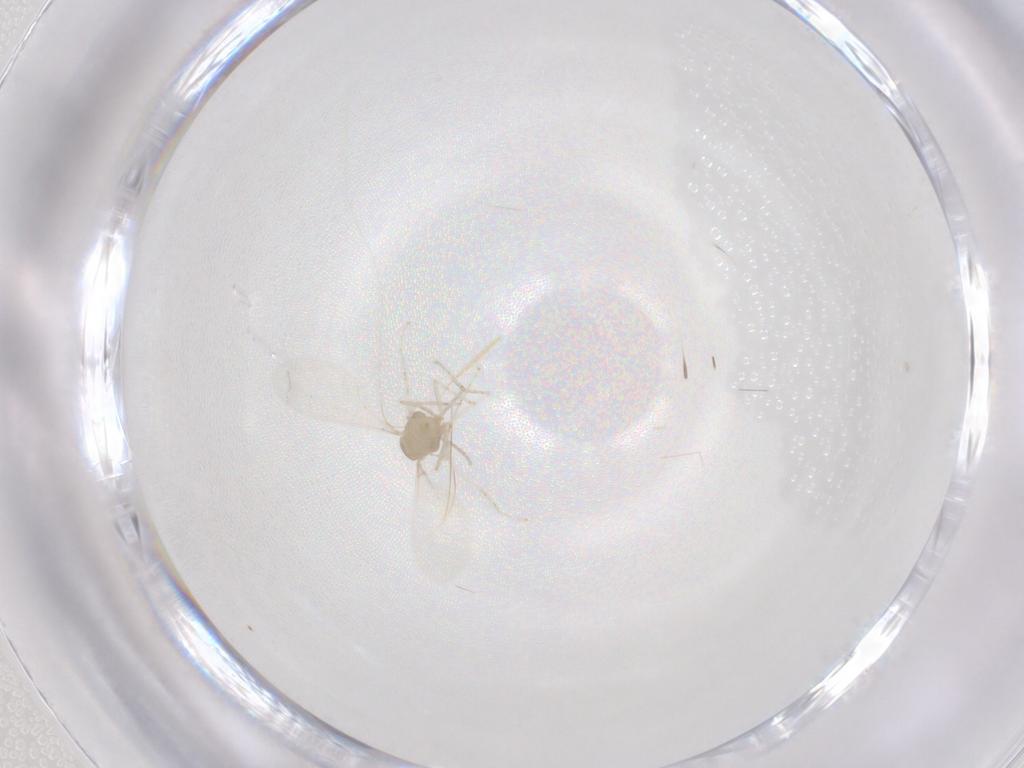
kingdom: Animalia
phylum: Arthropoda
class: Insecta
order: Diptera
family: Cecidomyiidae
